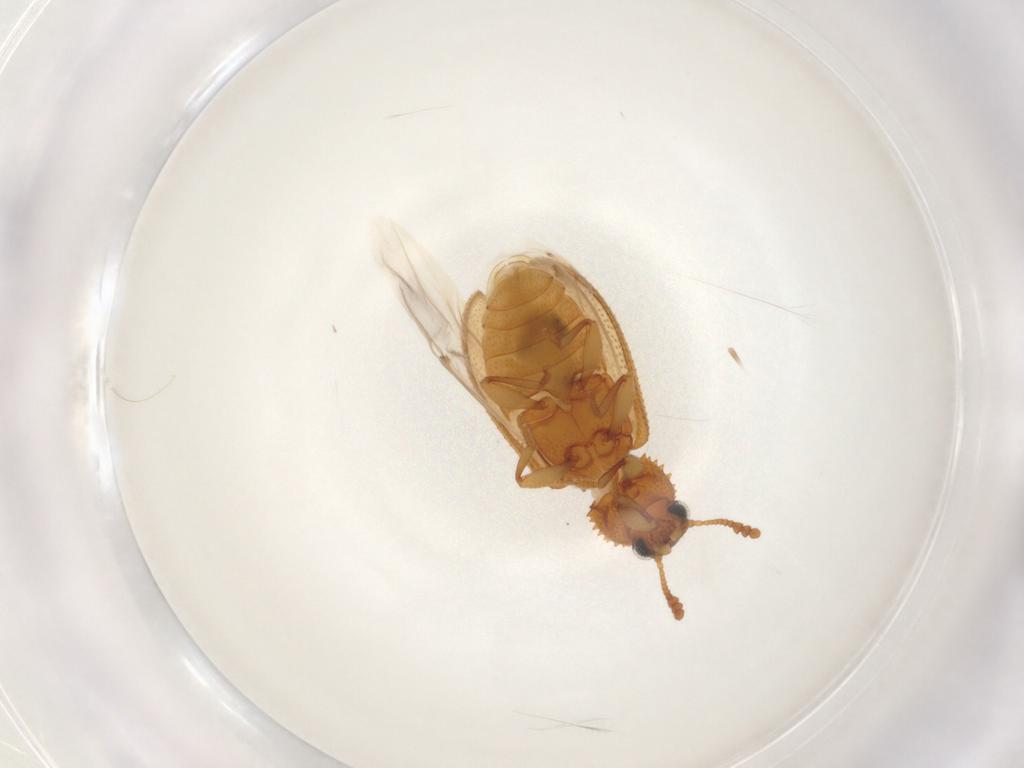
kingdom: Animalia
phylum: Arthropoda
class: Insecta
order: Coleoptera
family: Tenebrionidae
